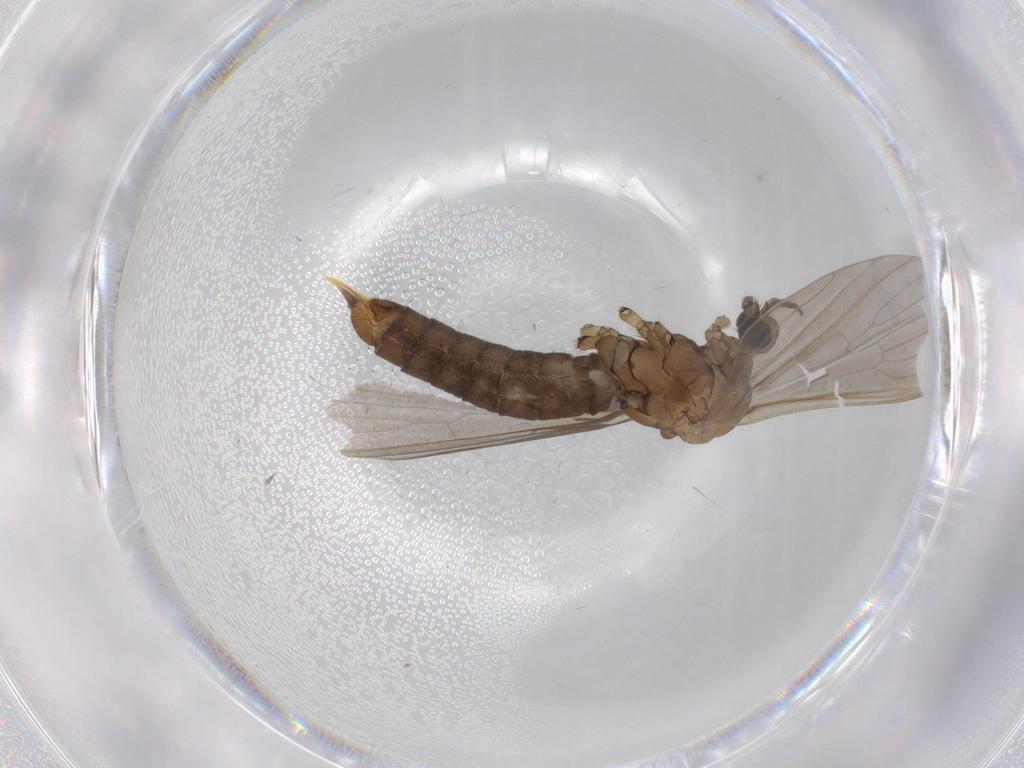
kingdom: Animalia
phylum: Arthropoda
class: Insecta
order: Diptera
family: Limoniidae
